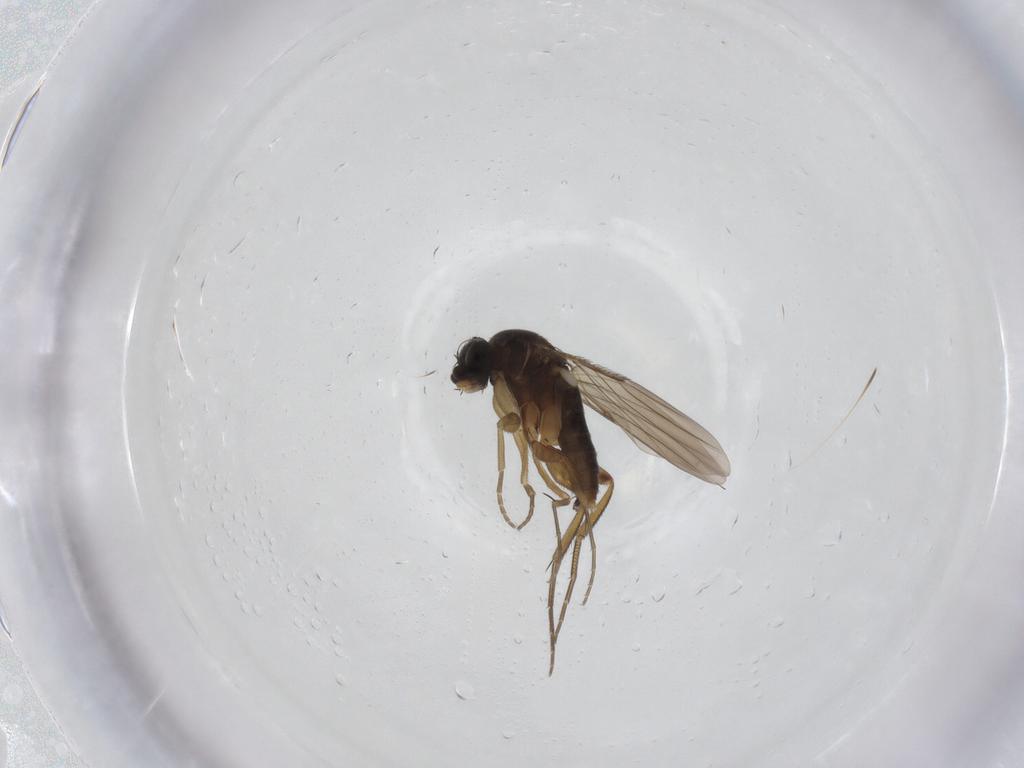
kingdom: Animalia
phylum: Arthropoda
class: Insecta
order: Diptera
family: Phoridae
